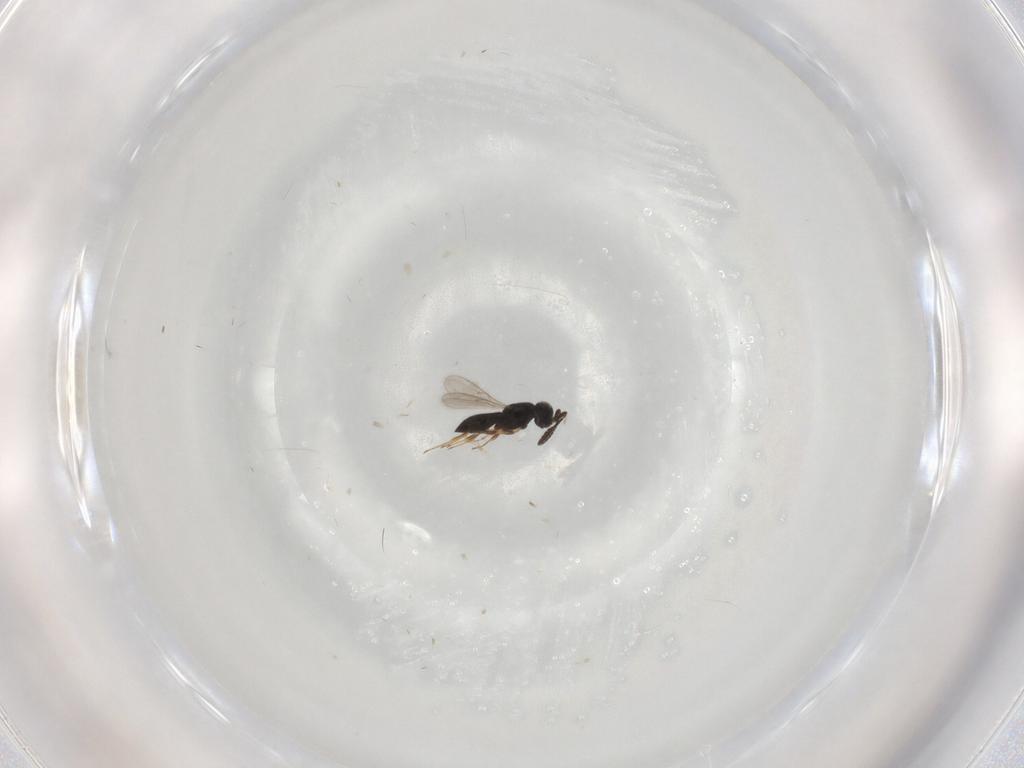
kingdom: Animalia
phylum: Arthropoda
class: Insecta
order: Hymenoptera
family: Scelionidae
